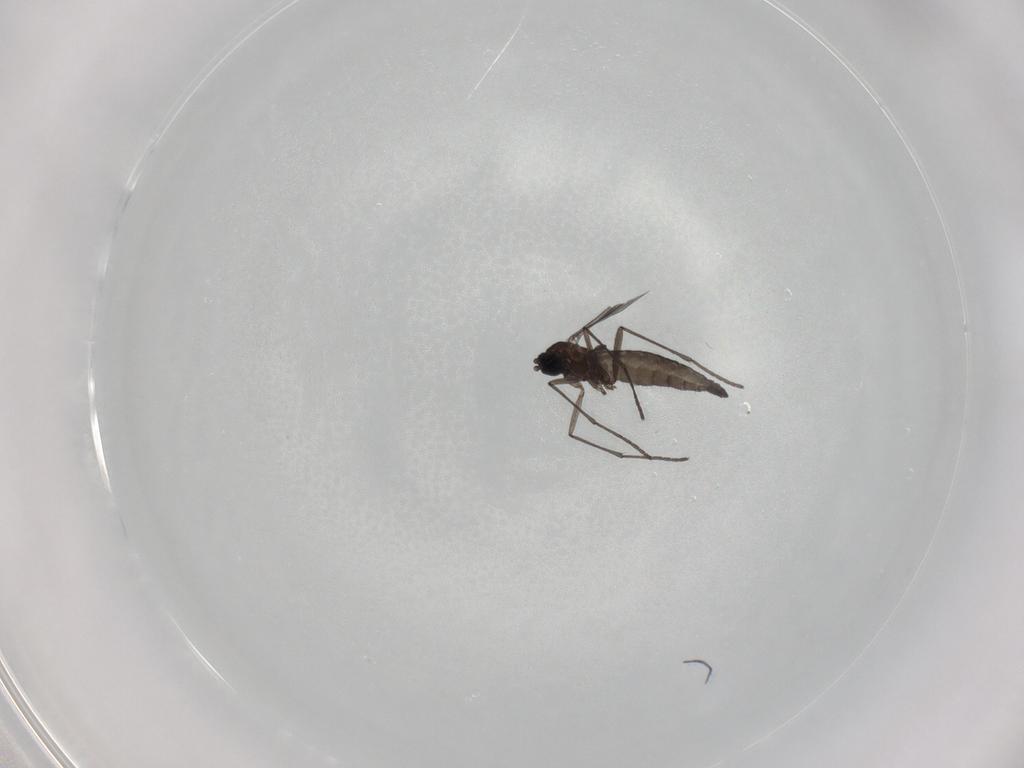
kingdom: Animalia
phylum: Arthropoda
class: Insecta
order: Diptera
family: Sciaridae
